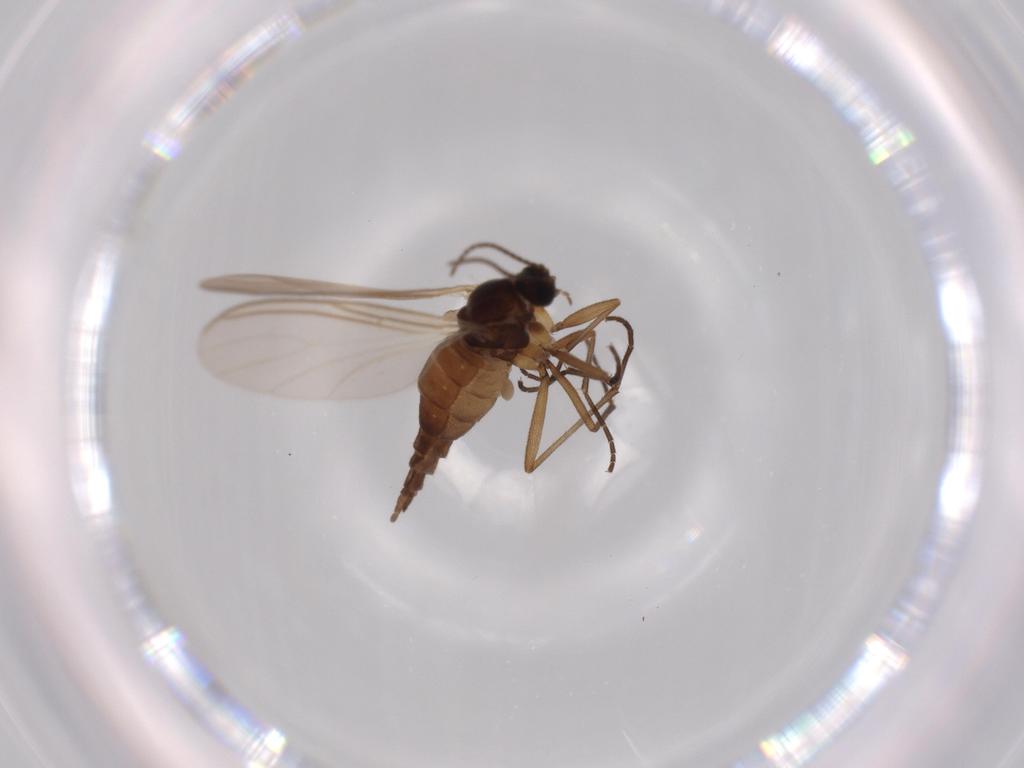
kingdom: Animalia
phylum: Arthropoda
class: Insecta
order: Diptera
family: Sciaridae
